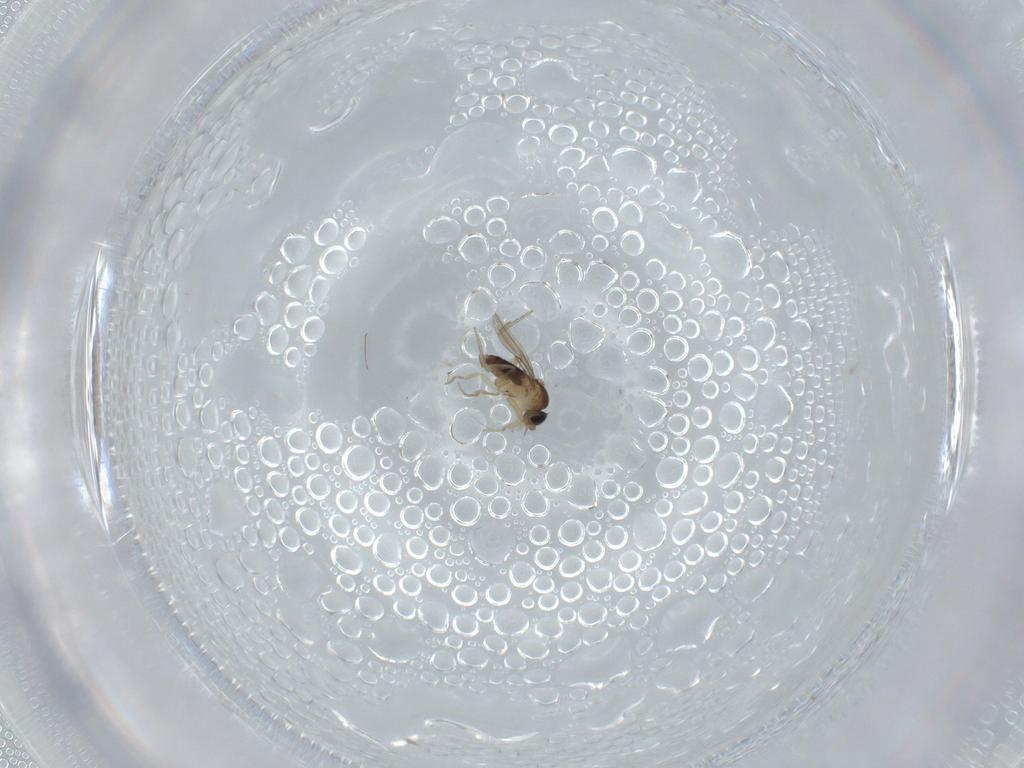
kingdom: Animalia
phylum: Arthropoda
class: Insecta
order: Diptera
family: Phoridae
